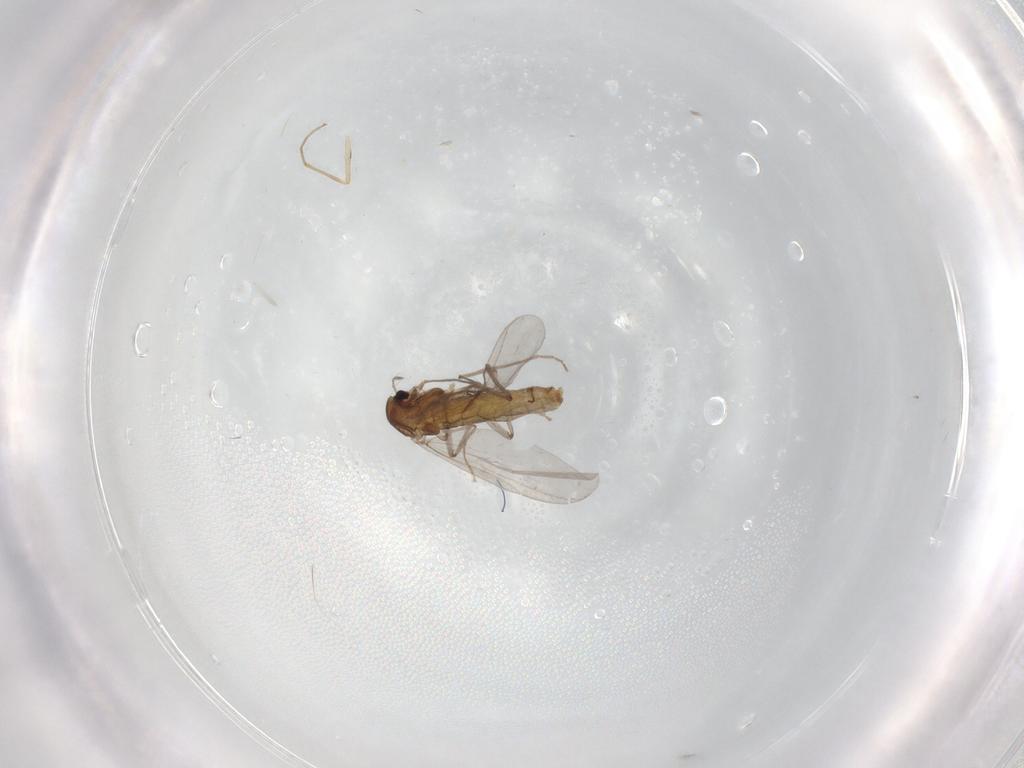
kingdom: Animalia
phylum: Arthropoda
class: Insecta
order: Diptera
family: Chironomidae
